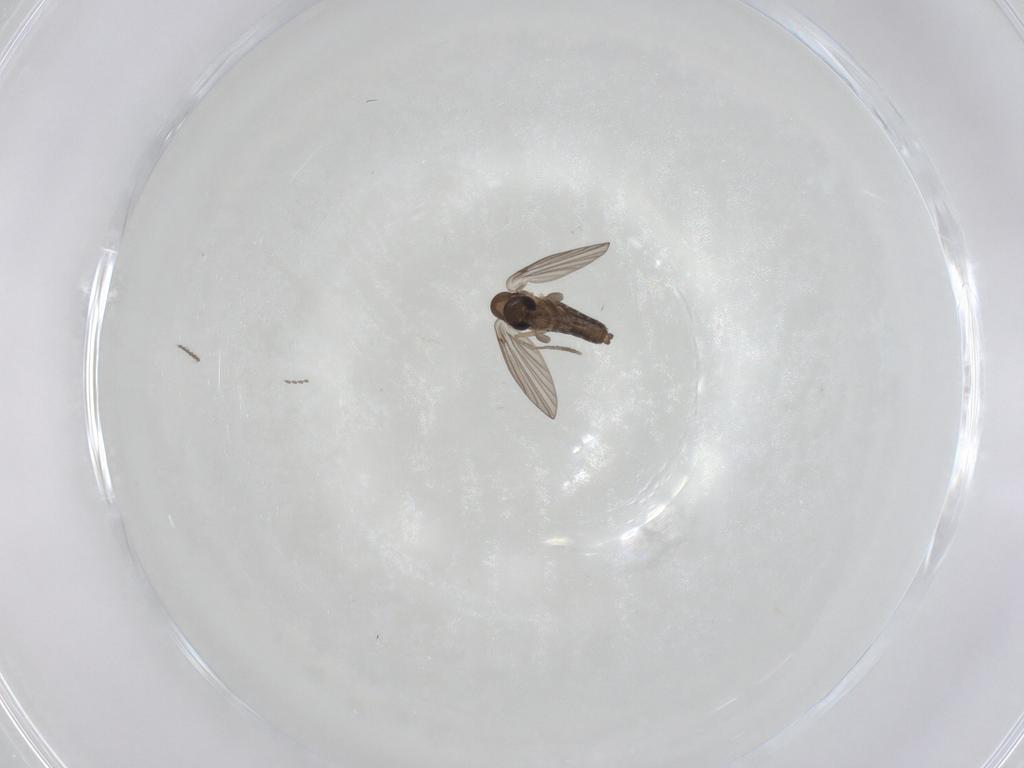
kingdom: Animalia
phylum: Arthropoda
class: Insecta
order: Diptera
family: Psychodidae
